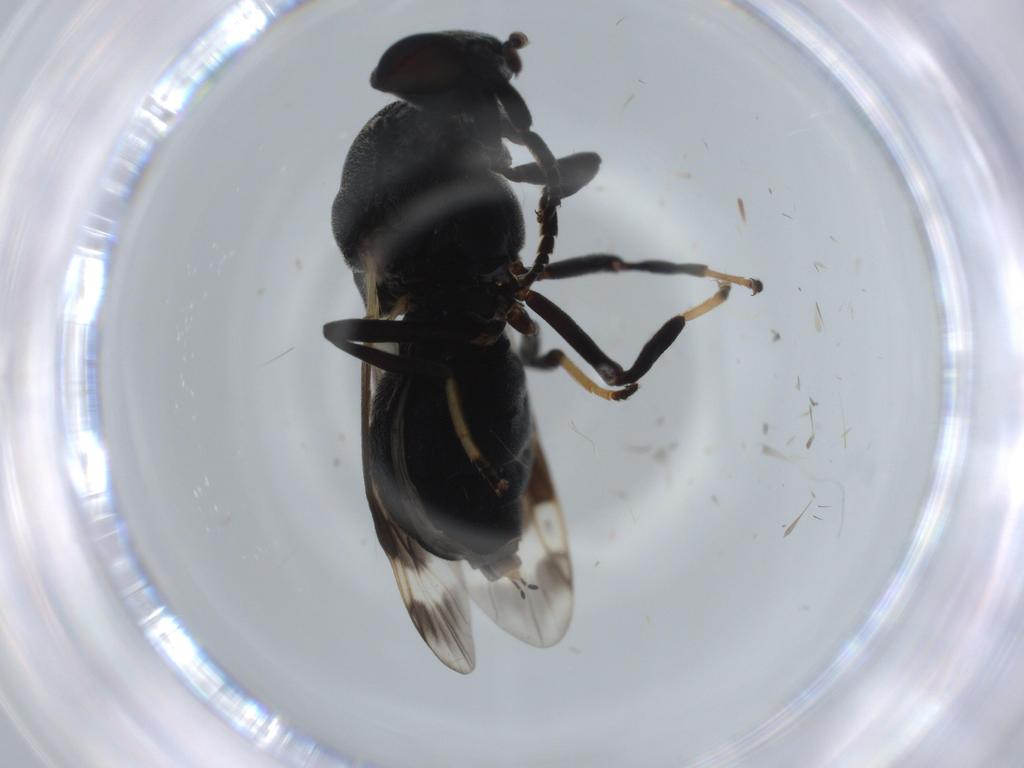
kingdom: Animalia
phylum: Arthropoda
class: Insecta
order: Diptera
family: Stratiomyidae
